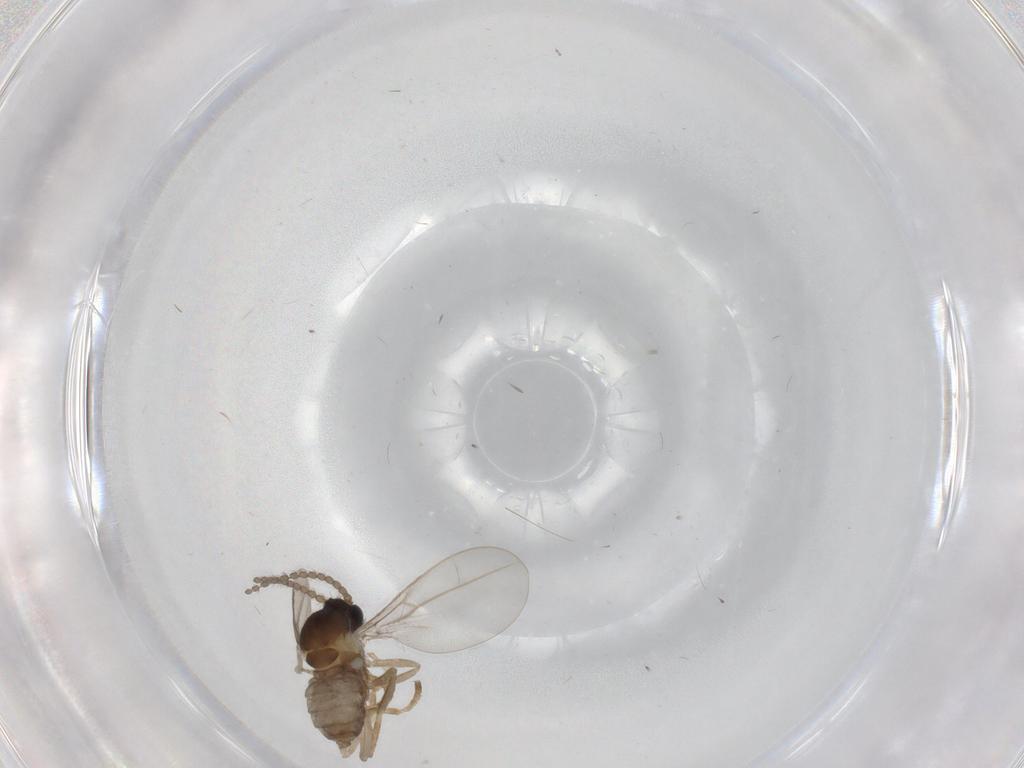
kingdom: Animalia
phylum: Arthropoda
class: Insecta
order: Diptera
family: Cecidomyiidae
